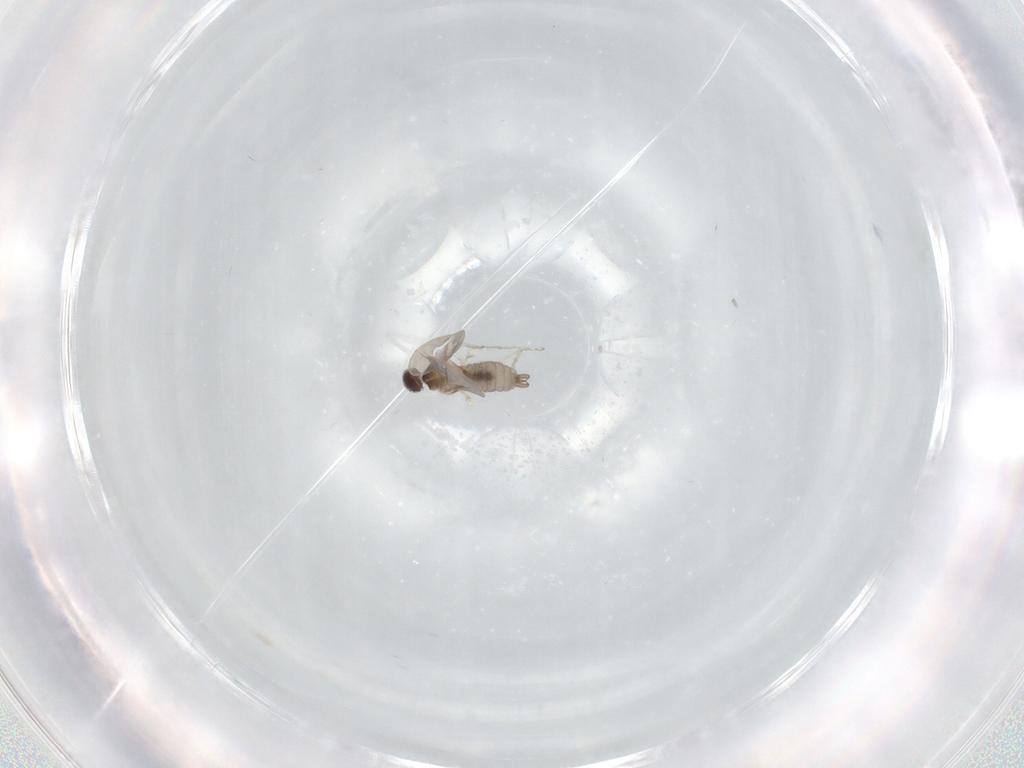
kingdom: Animalia
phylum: Arthropoda
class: Insecta
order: Diptera
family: Cecidomyiidae
